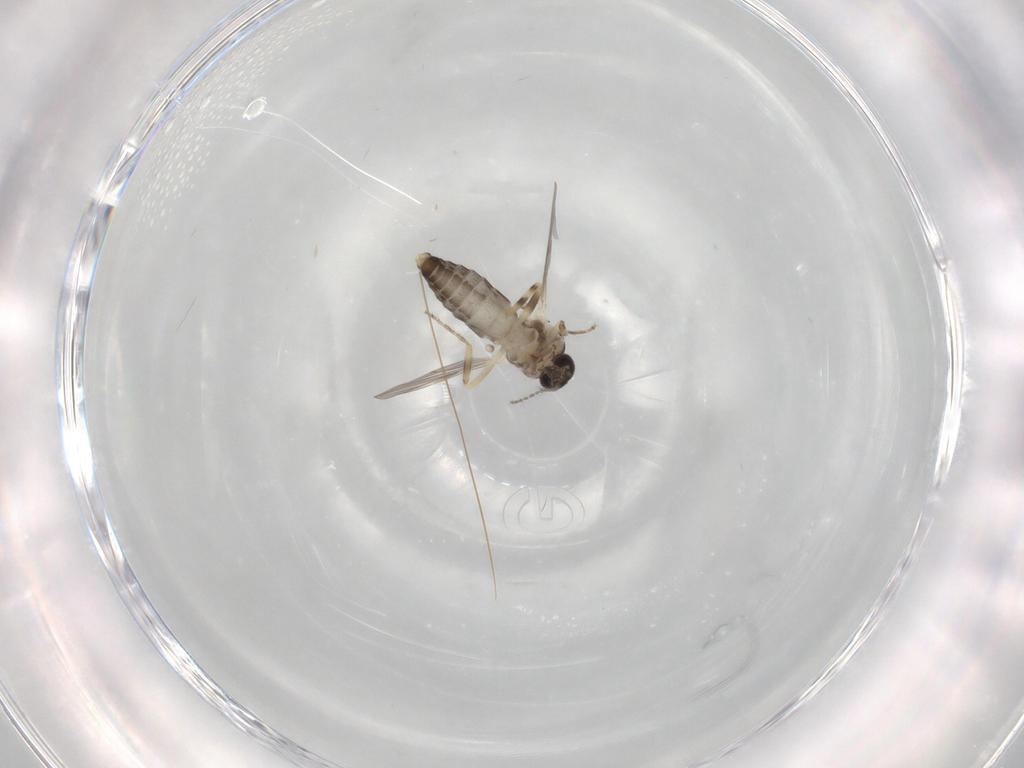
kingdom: Animalia
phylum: Arthropoda
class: Insecta
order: Diptera
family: Ceratopogonidae
